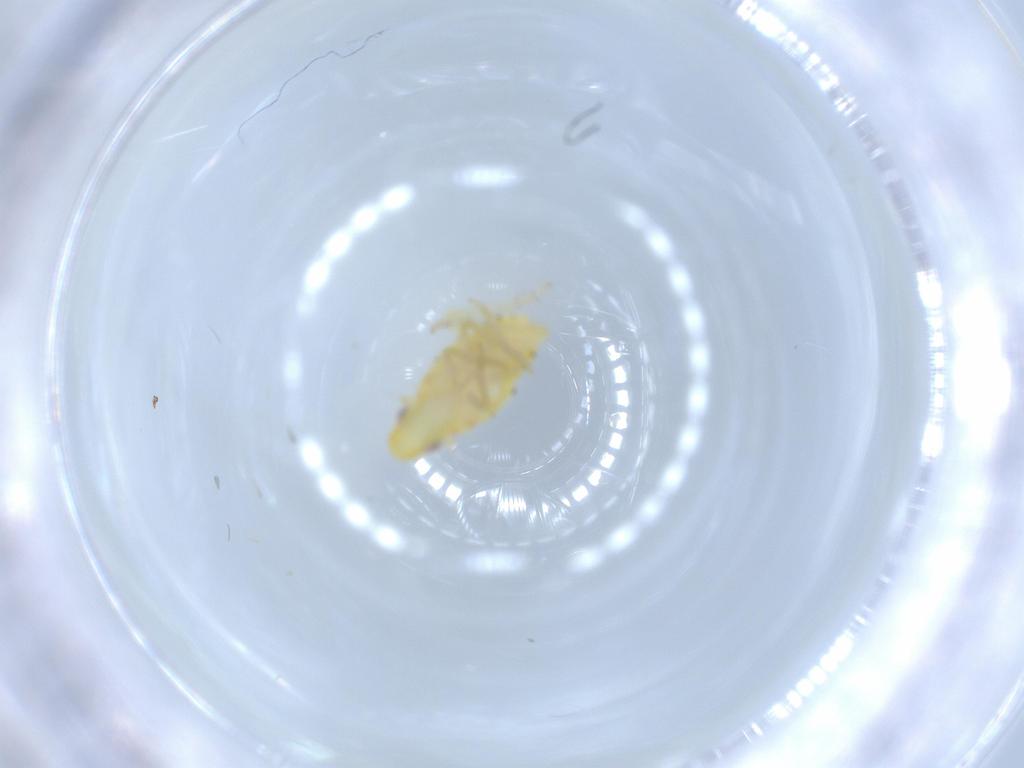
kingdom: Animalia
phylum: Arthropoda
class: Insecta
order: Hemiptera
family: Tropiduchidae
